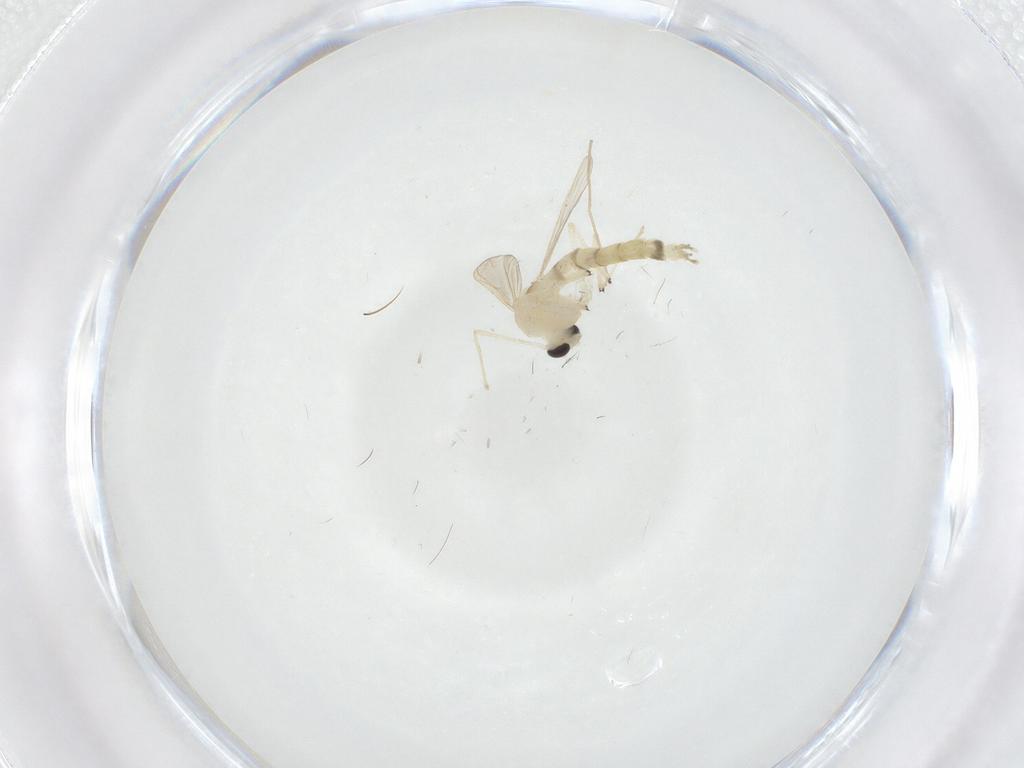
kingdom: Animalia
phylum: Arthropoda
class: Insecta
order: Diptera
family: Chironomidae
